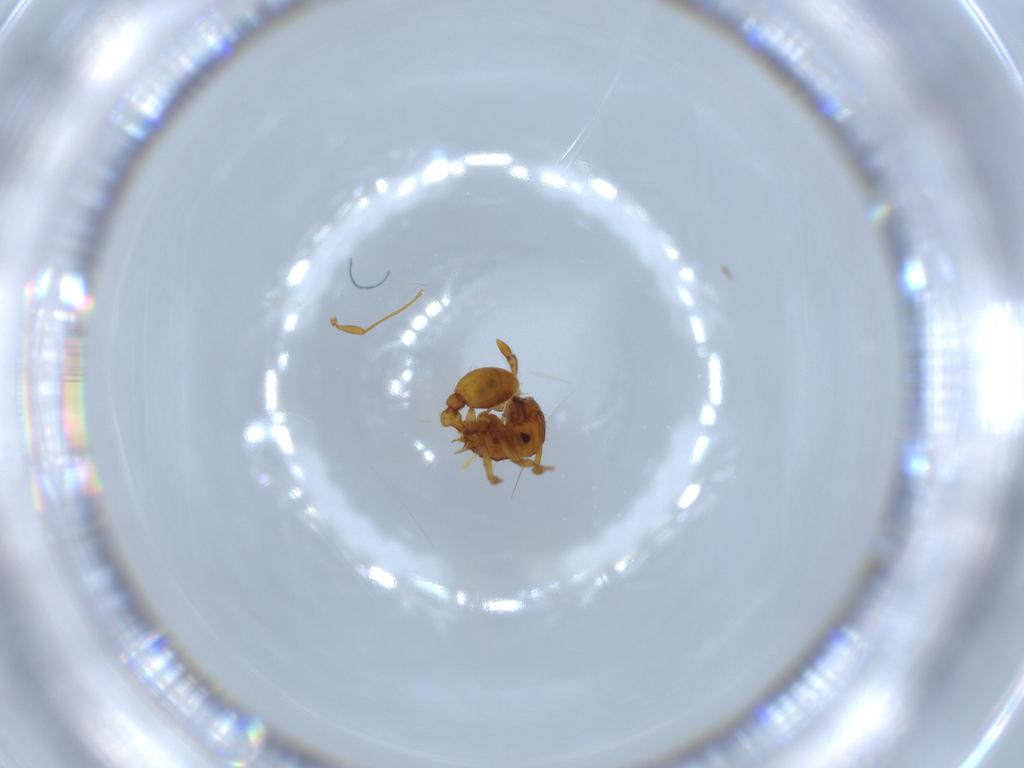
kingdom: Animalia
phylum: Arthropoda
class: Insecta
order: Hymenoptera
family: Formicidae
